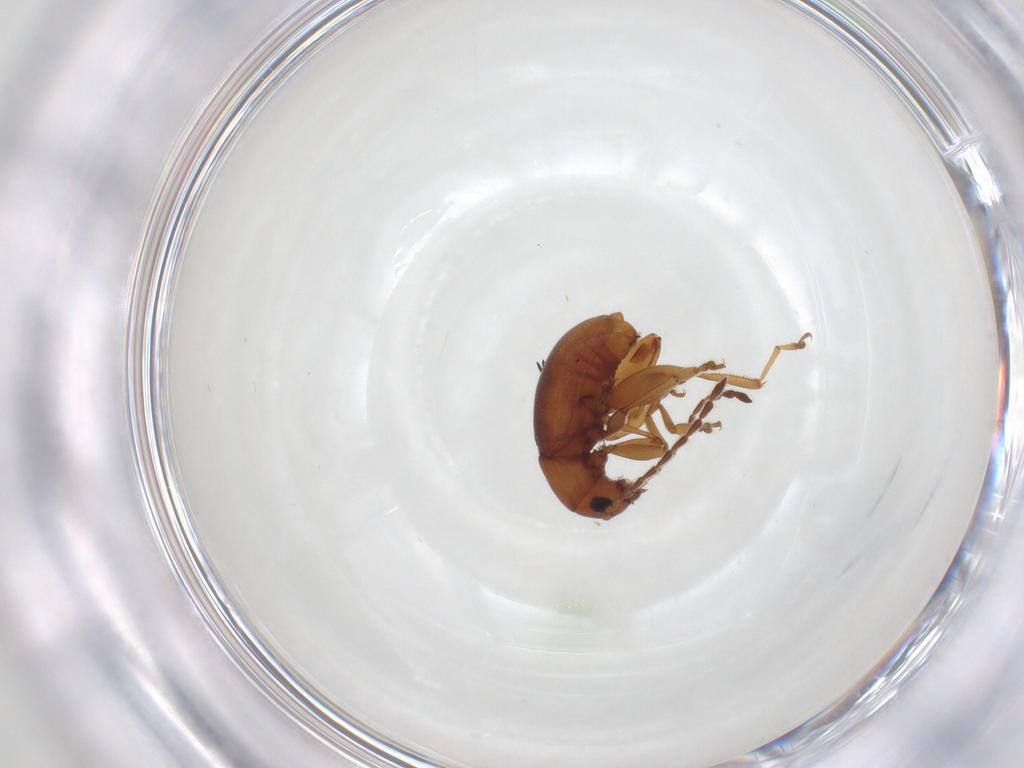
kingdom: Animalia
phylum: Arthropoda
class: Insecta
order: Coleoptera
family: Chrysomelidae
